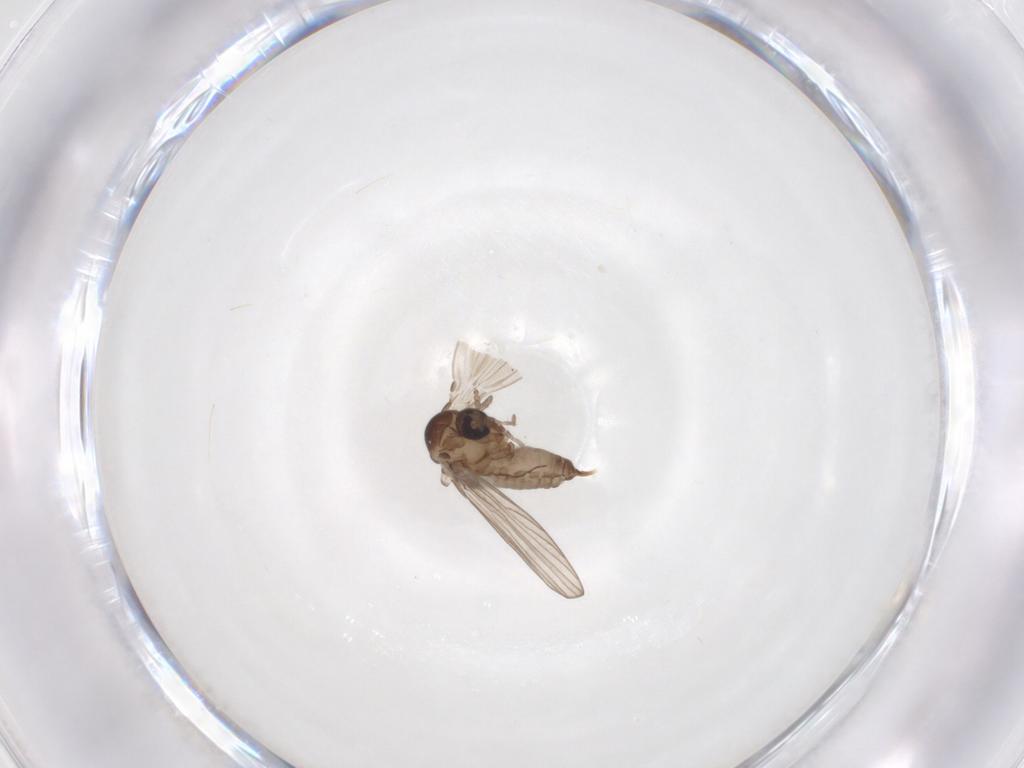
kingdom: Animalia
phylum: Arthropoda
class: Insecta
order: Diptera
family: Psychodidae
